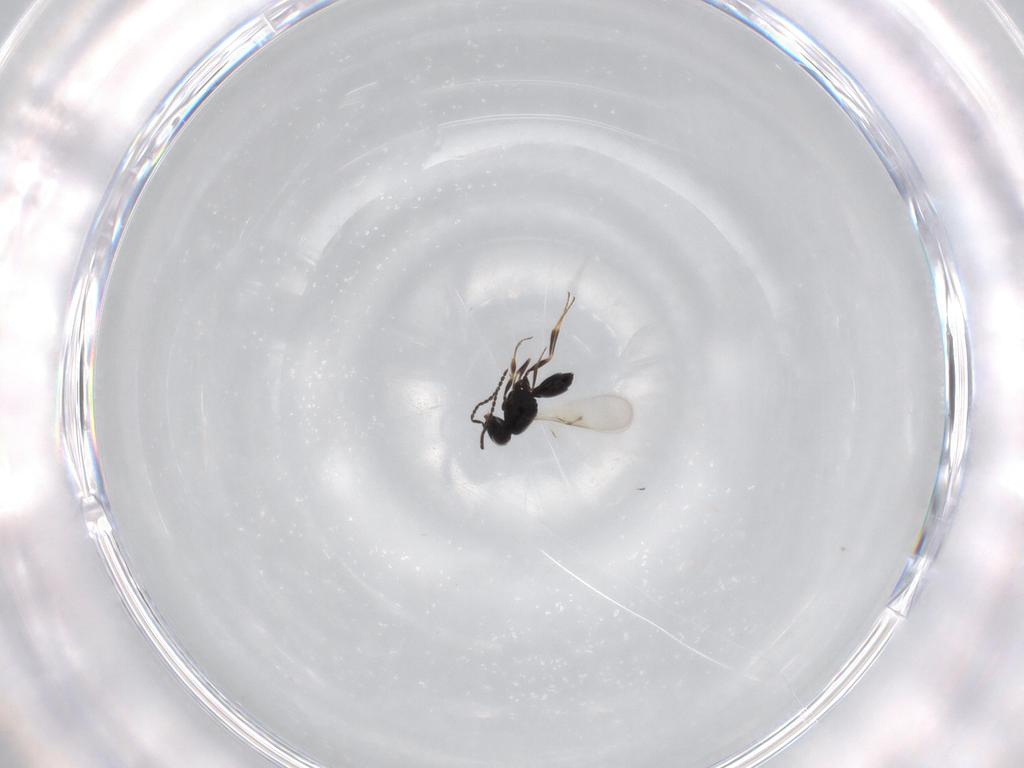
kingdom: Animalia
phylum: Arthropoda
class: Insecta
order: Hymenoptera
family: Scelionidae
